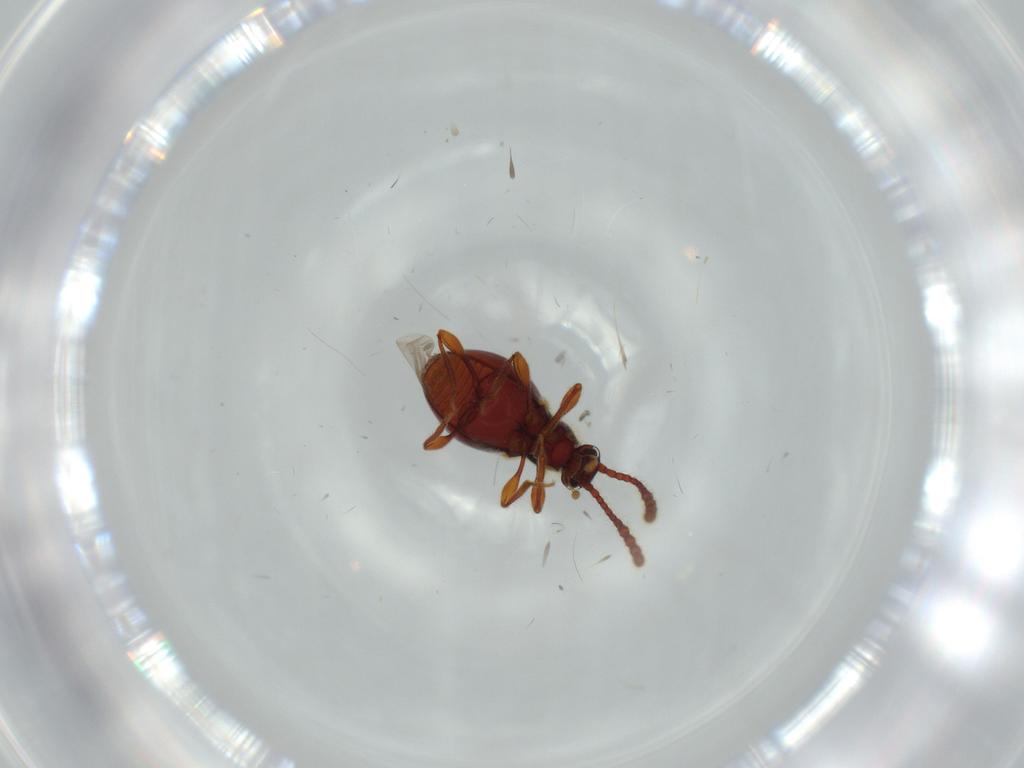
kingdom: Animalia
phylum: Arthropoda
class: Insecta
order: Coleoptera
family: Staphylinidae
